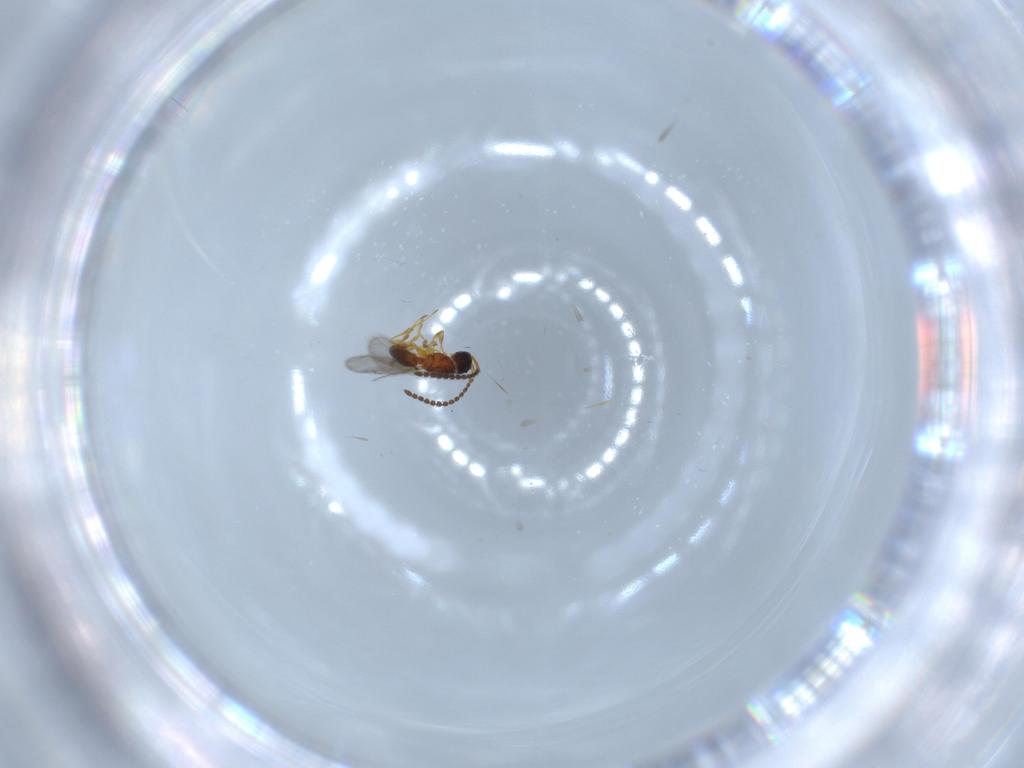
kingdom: Animalia
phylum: Arthropoda
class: Insecta
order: Hymenoptera
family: Diapriidae
